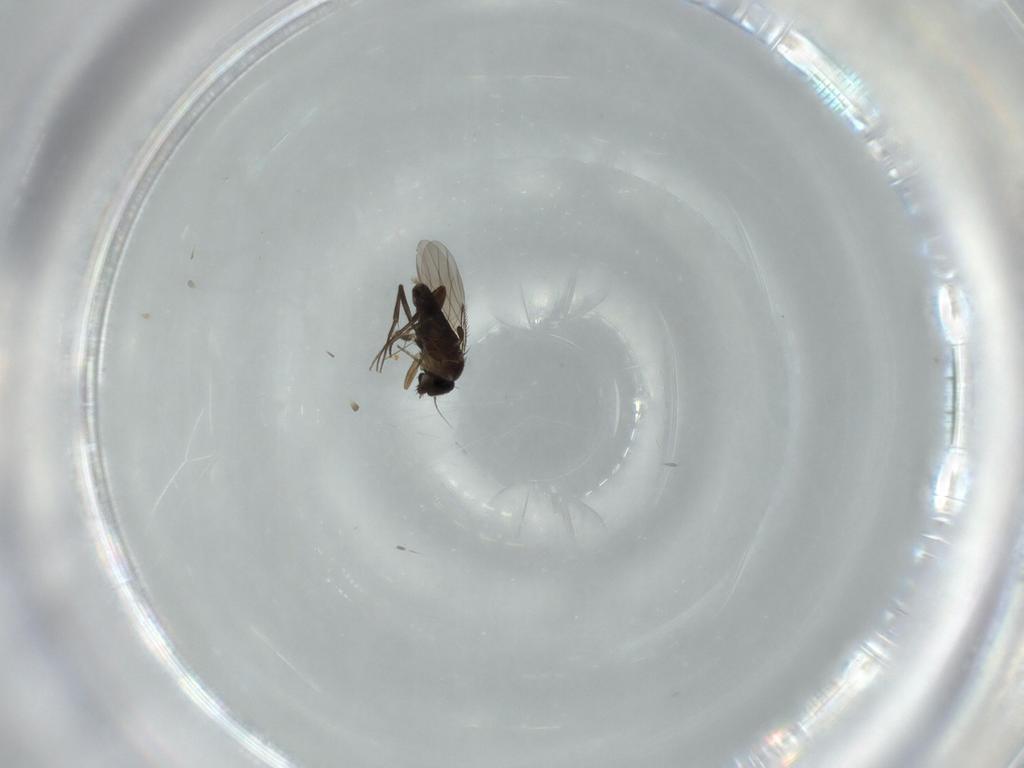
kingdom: Animalia
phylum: Arthropoda
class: Insecta
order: Diptera
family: Phoridae
